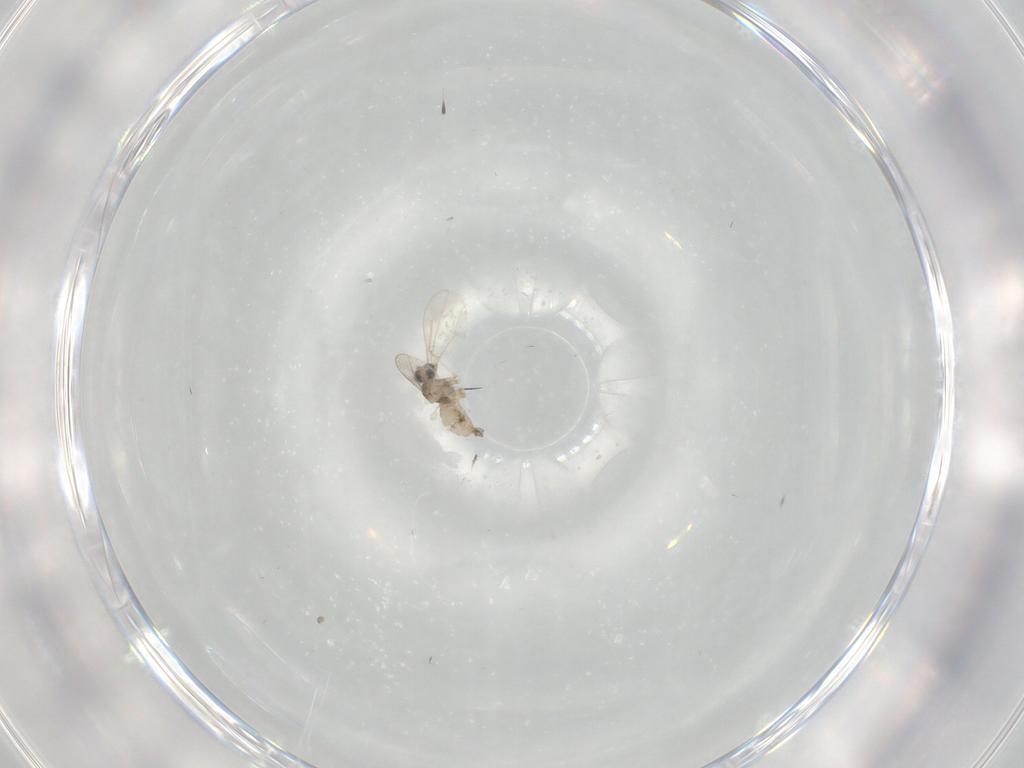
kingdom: Animalia
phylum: Arthropoda
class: Insecta
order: Diptera
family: Cecidomyiidae
